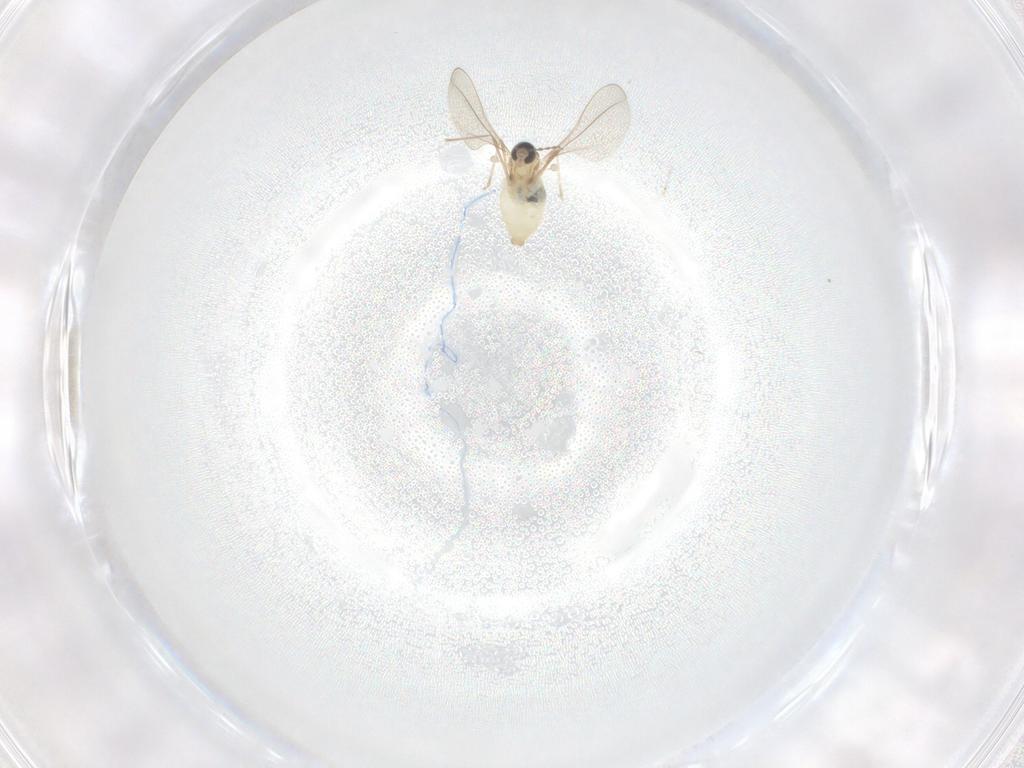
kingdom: Animalia
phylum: Arthropoda
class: Insecta
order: Diptera
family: Cecidomyiidae
